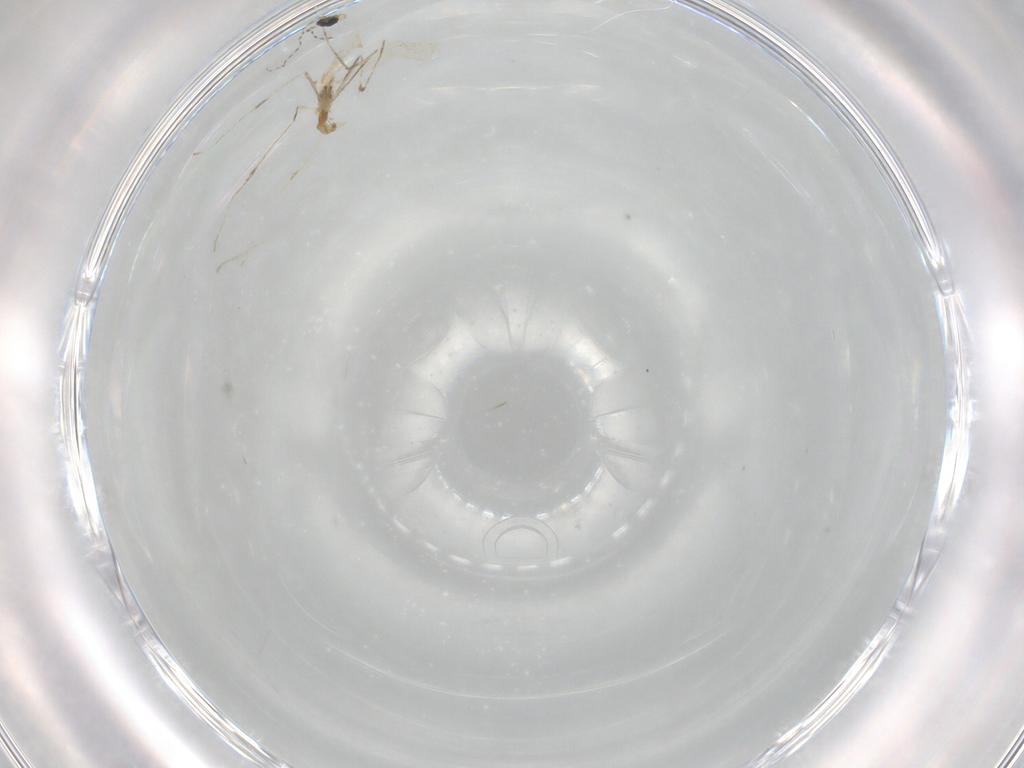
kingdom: Animalia
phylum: Arthropoda
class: Insecta
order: Diptera
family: Cecidomyiidae
